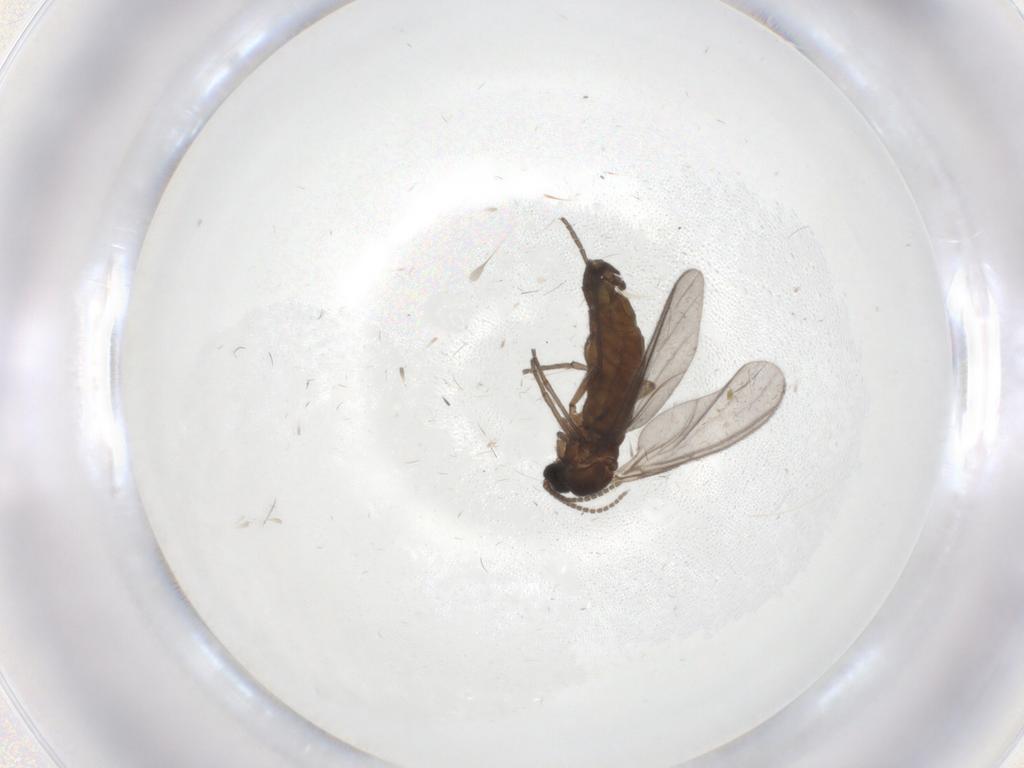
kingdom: Animalia
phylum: Arthropoda
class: Insecta
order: Diptera
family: Sciaridae
